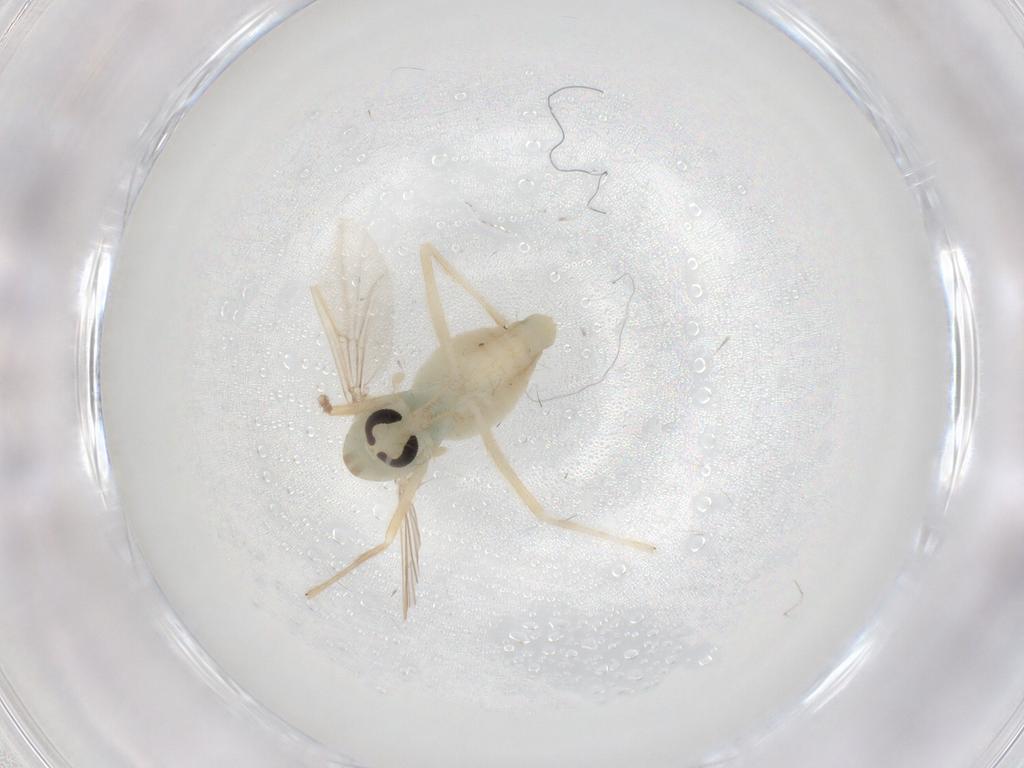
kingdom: Animalia
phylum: Arthropoda
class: Insecta
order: Diptera
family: Chironomidae
